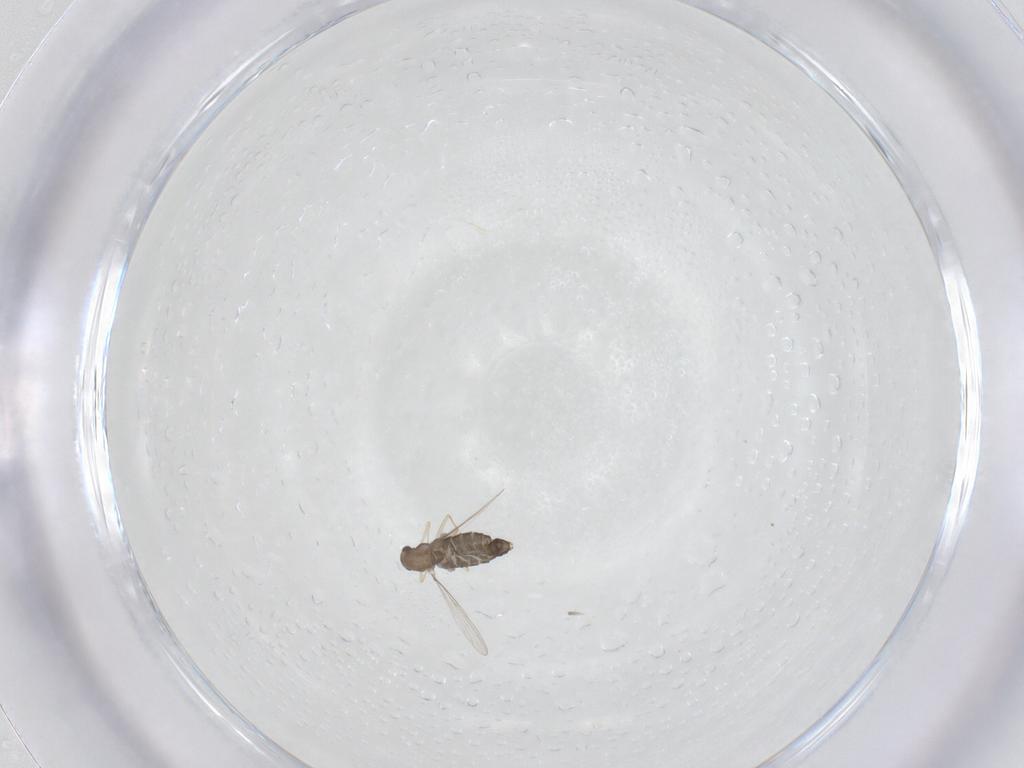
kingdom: Animalia
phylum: Arthropoda
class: Insecta
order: Diptera
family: Chironomidae
